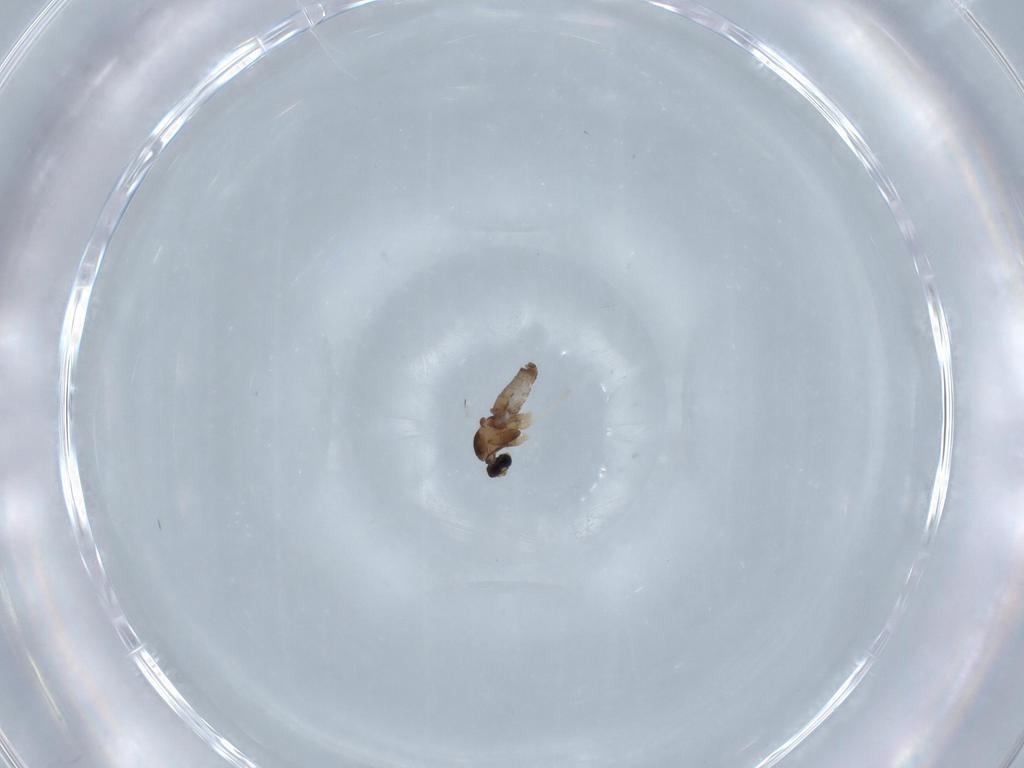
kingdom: Animalia
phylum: Arthropoda
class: Insecta
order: Diptera
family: Cecidomyiidae
